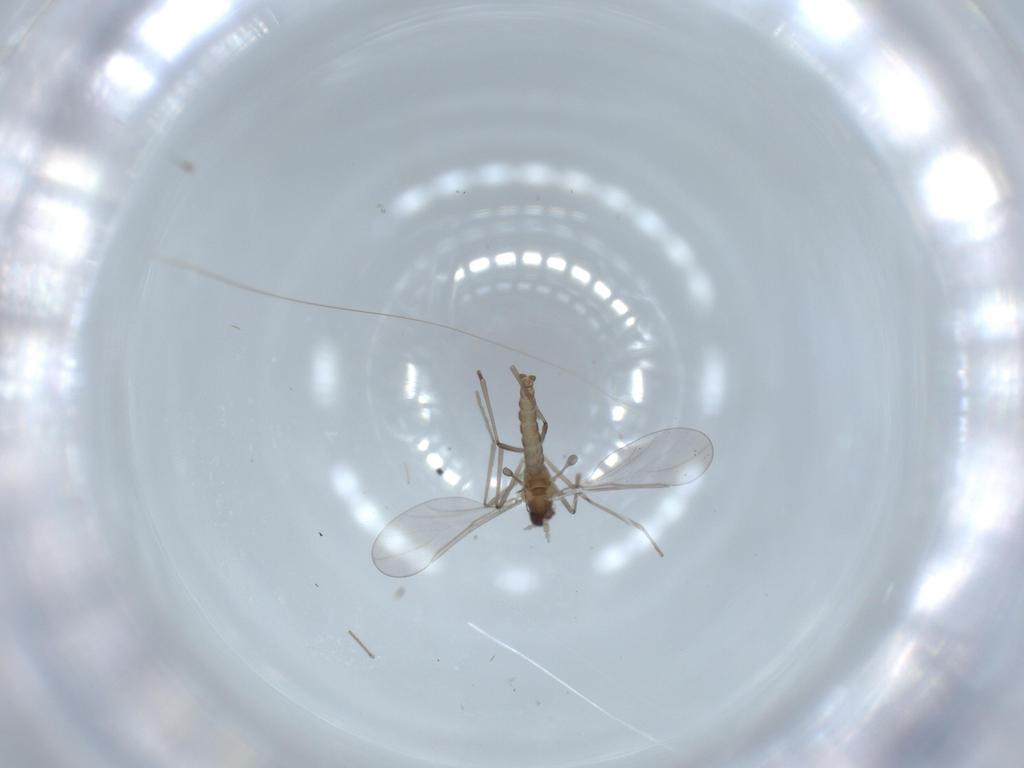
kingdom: Animalia
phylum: Arthropoda
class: Insecta
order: Diptera
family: Cecidomyiidae
